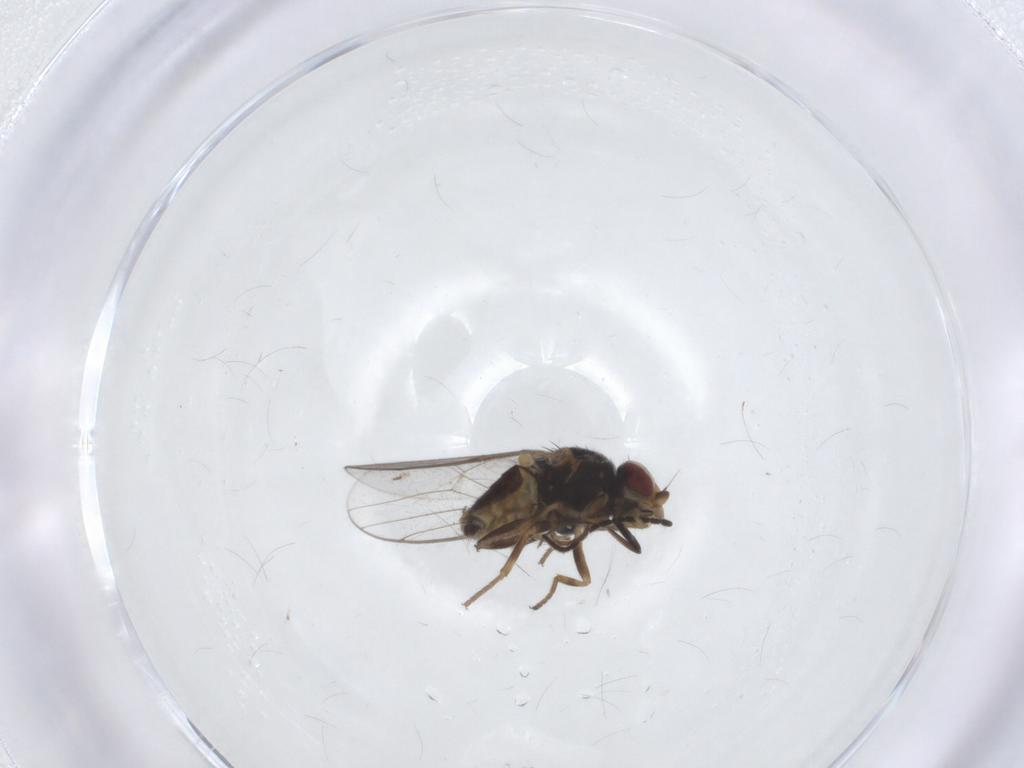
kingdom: Animalia
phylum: Arthropoda
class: Insecta
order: Diptera
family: Chloropidae
